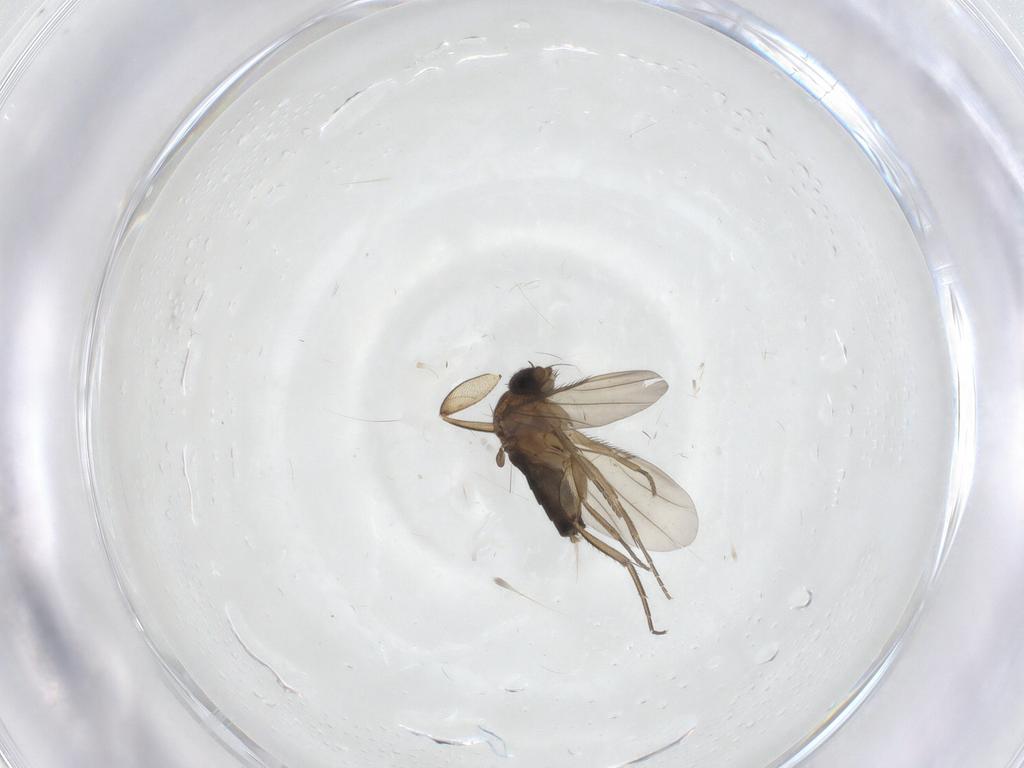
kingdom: Animalia
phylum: Arthropoda
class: Insecta
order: Diptera
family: Phoridae
